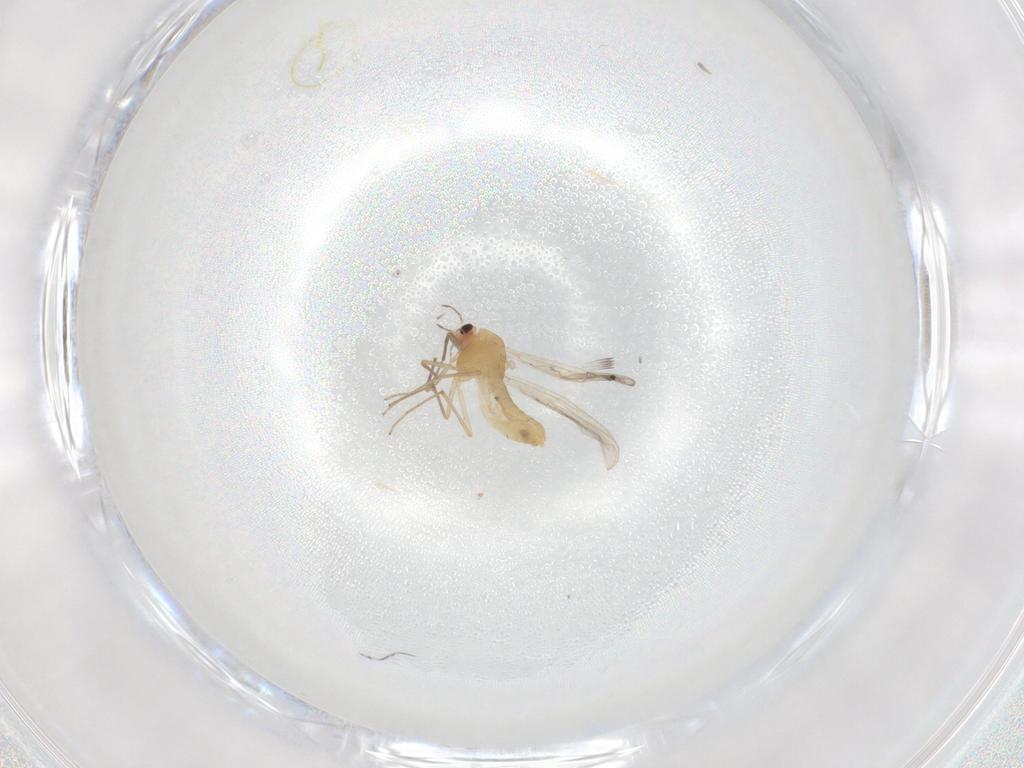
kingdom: Animalia
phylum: Arthropoda
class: Insecta
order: Diptera
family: Chironomidae
